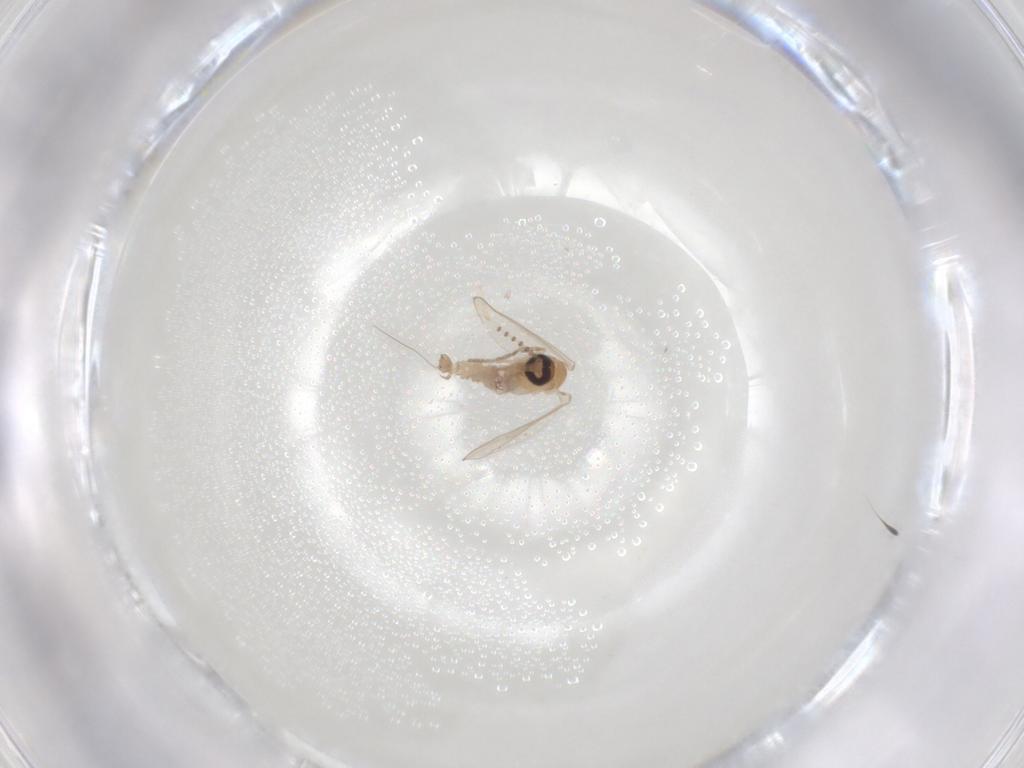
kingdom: Animalia
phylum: Arthropoda
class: Insecta
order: Diptera
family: Psychodidae
